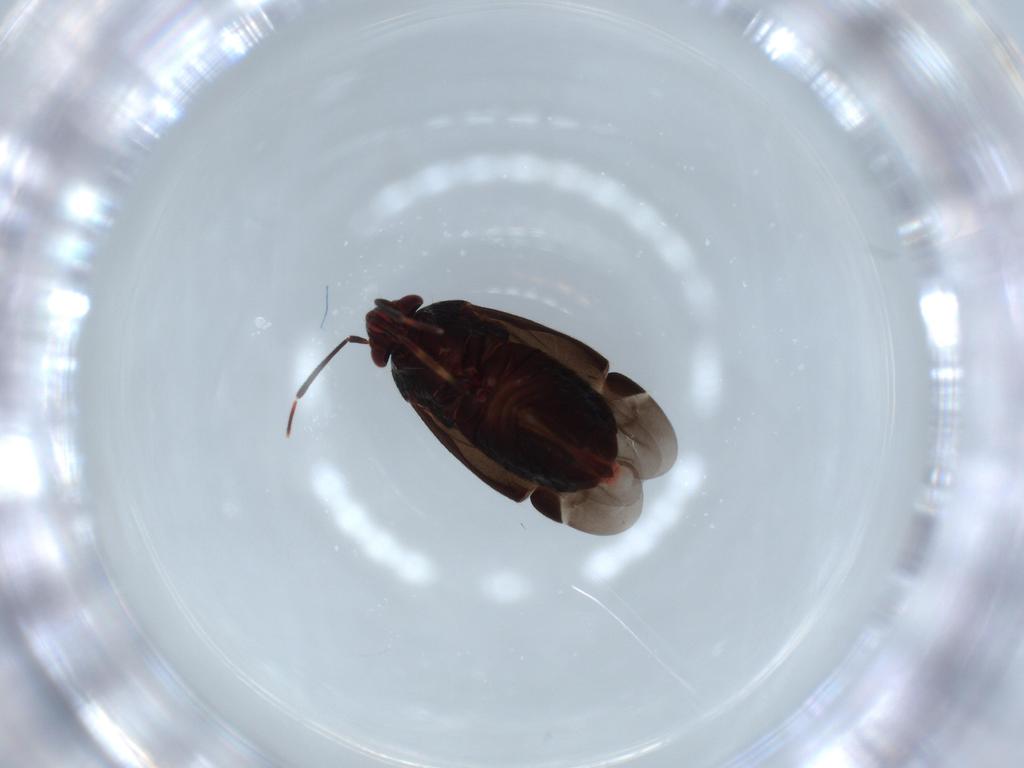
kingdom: Animalia
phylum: Arthropoda
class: Insecta
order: Hemiptera
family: Miridae
